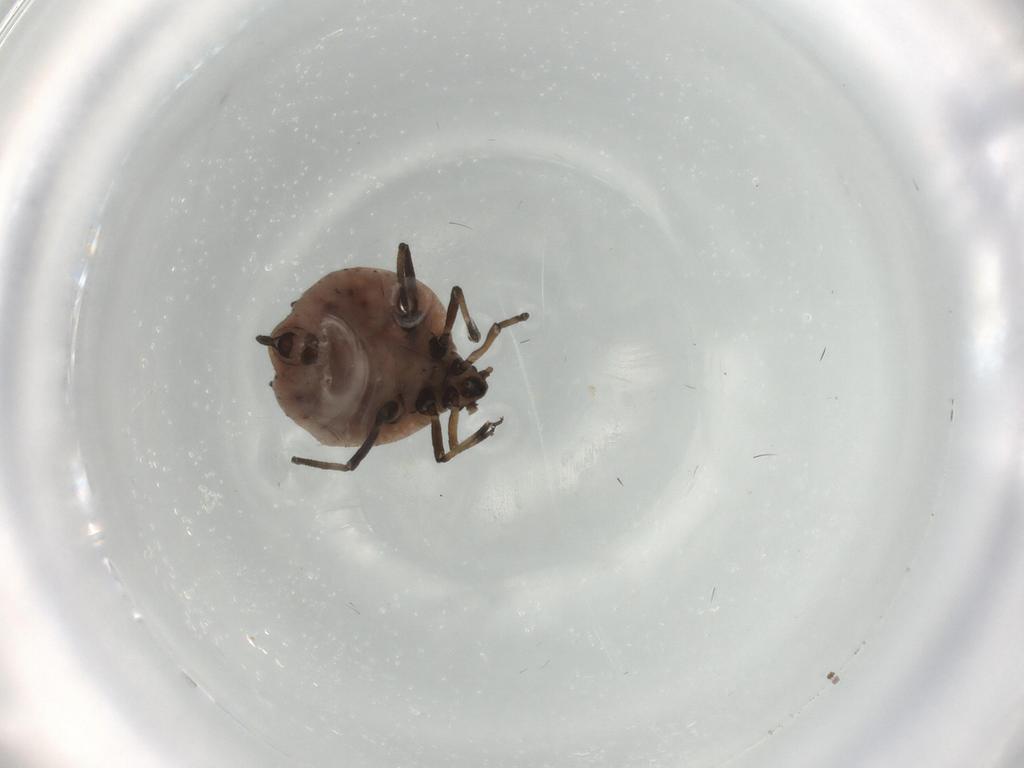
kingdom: Animalia
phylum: Arthropoda
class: Insecta
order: Hemiptera
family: Aphididae
